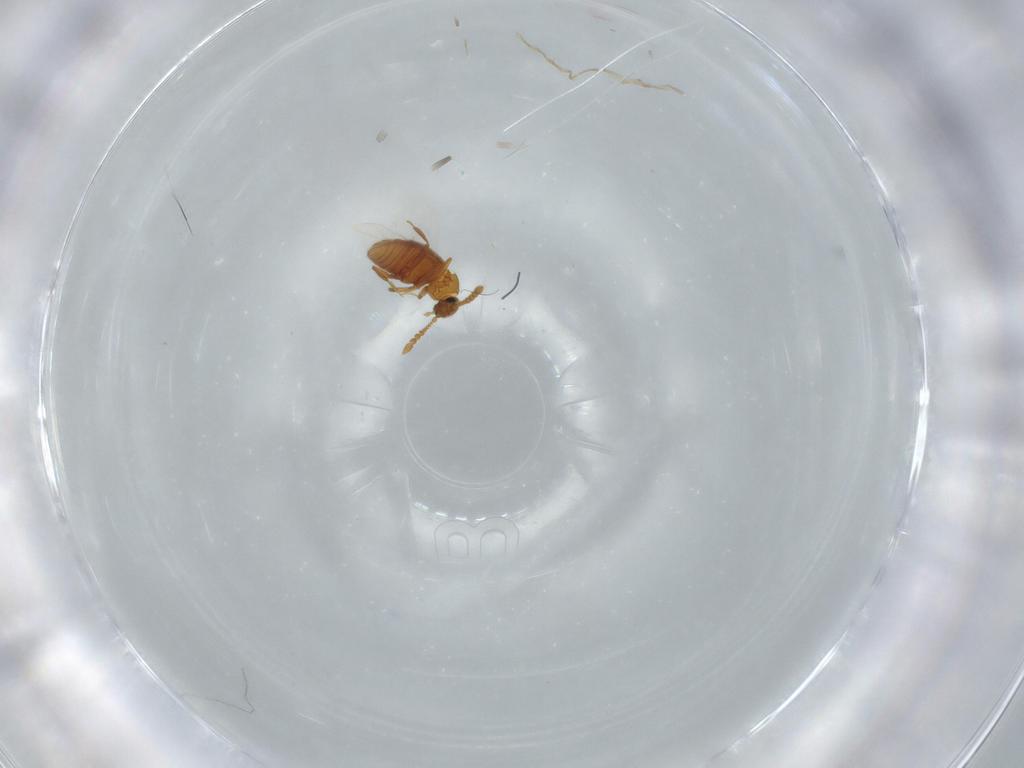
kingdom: Animalia
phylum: Arthropoda
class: Insecta
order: Coleoptera
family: Staphylinidae
